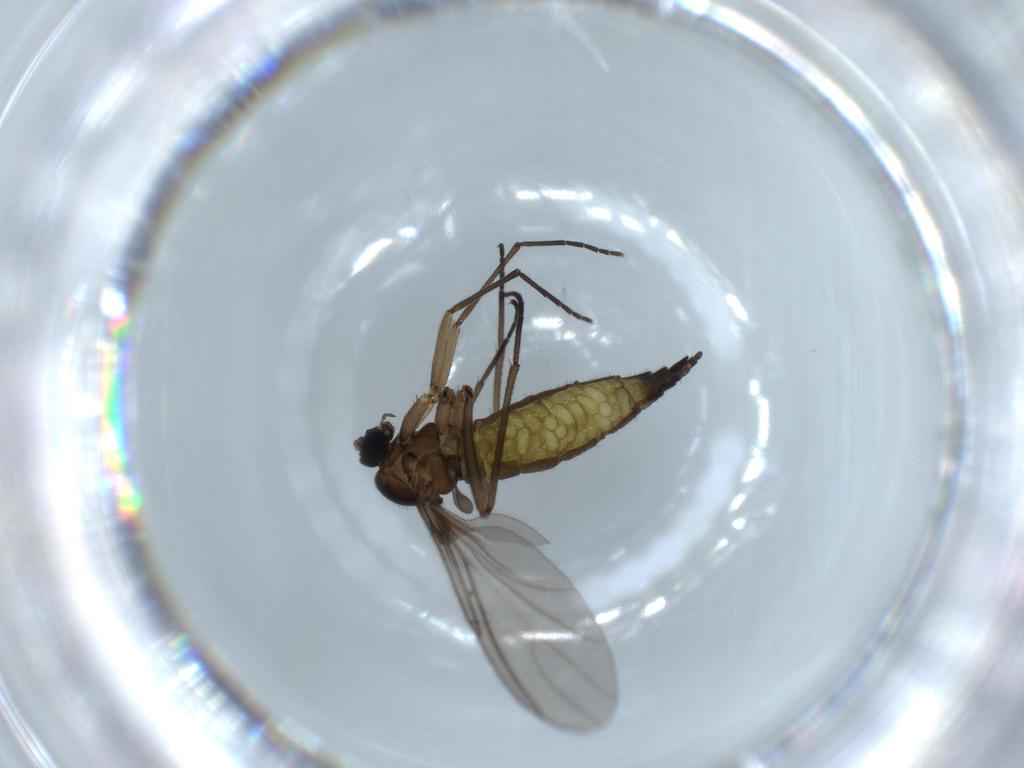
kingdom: Animalia
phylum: Arthropoda
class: Insecta
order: Diptera
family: Sciaridae
